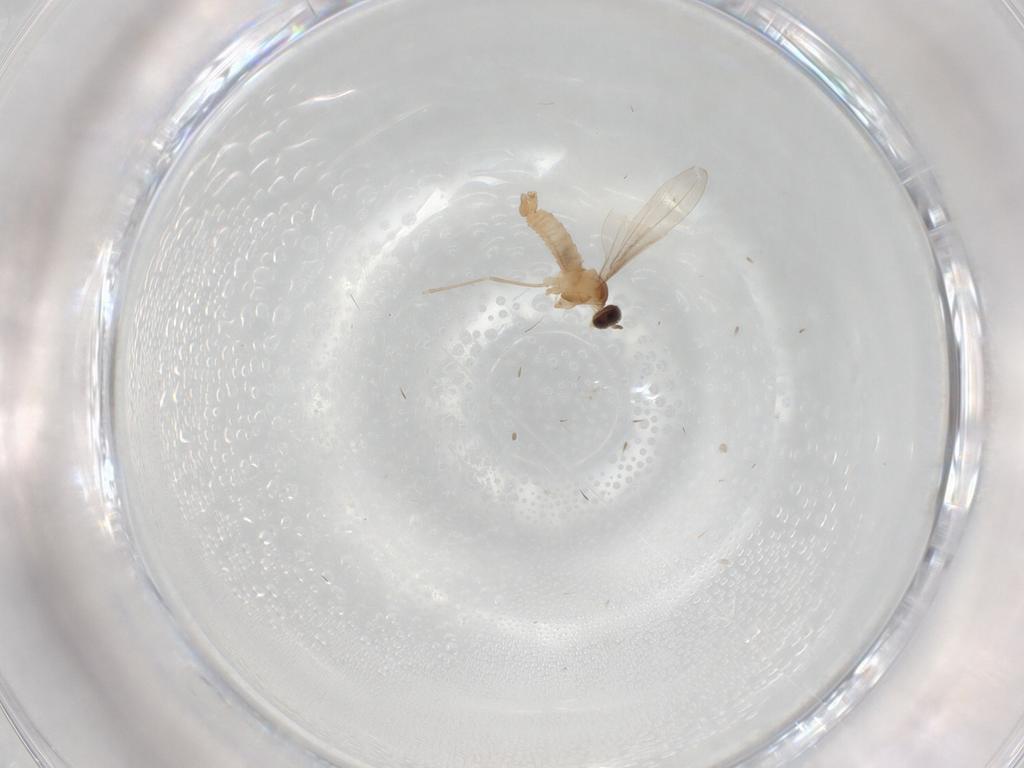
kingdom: Animalia
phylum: Arthropoda
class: Insecta
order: Diptera
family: Cecidomyiidae
